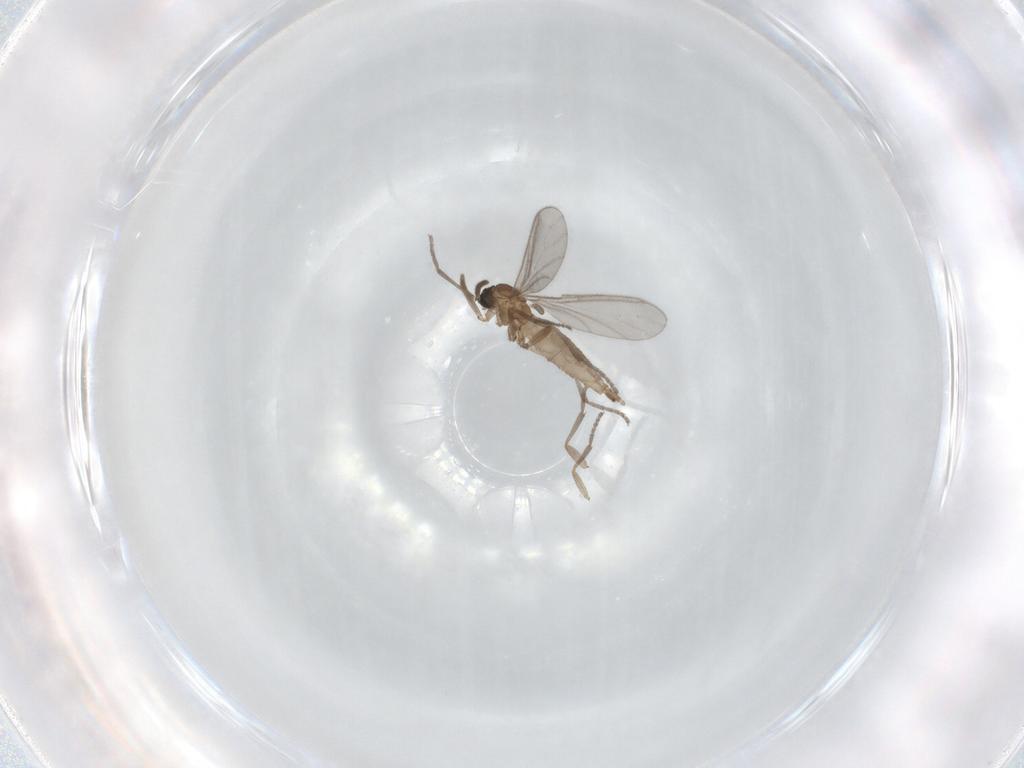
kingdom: Animalia
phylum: Arthropoda
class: Insecta
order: Diptera
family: Sciaridae
